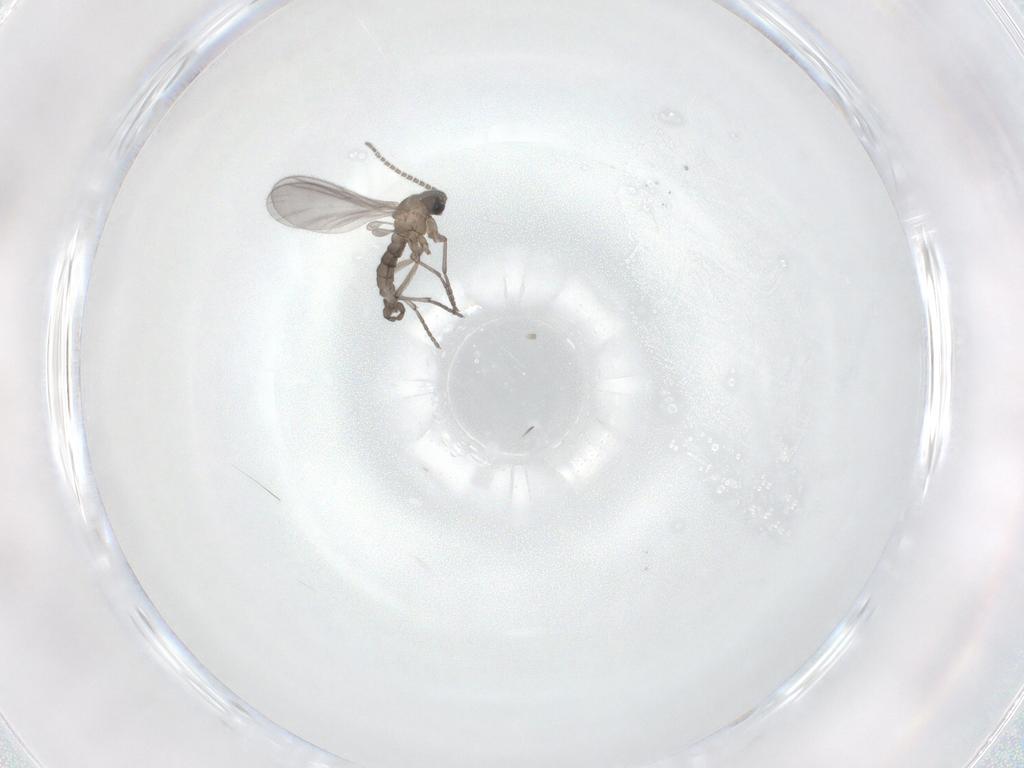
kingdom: Animalia
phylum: Arthropoda
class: Insecta
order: Diptera
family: Sciaridae
